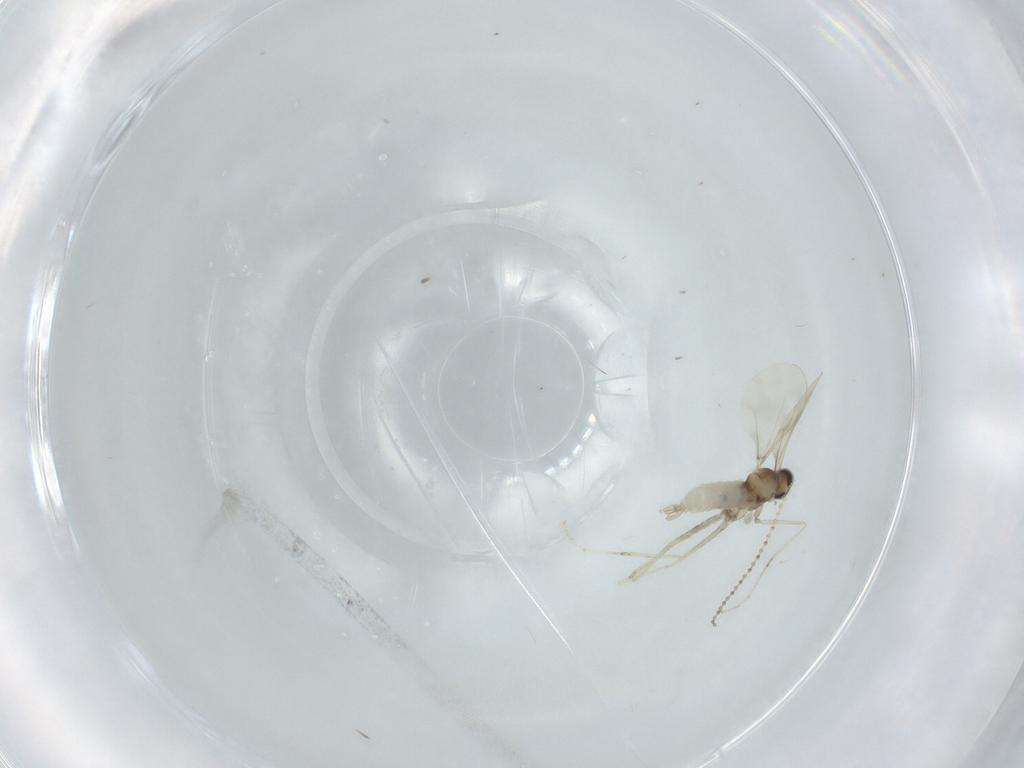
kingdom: Animalia
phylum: Arthropoda
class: Insecta
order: Diptera
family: Cecidomyiidae
